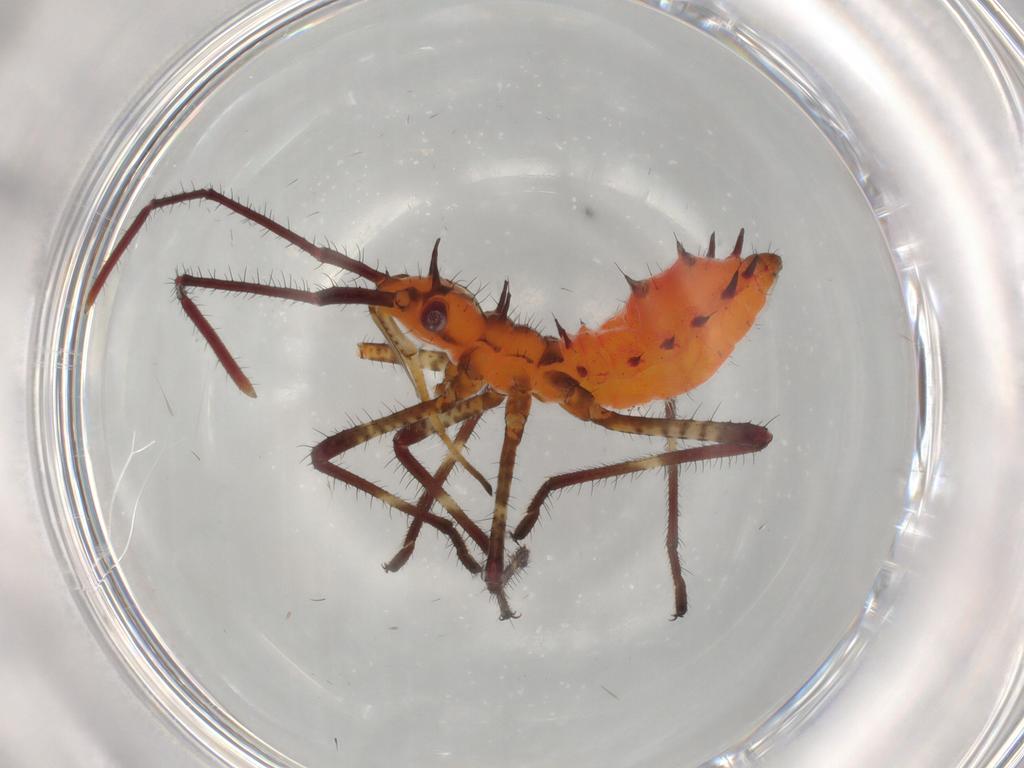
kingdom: Animalia
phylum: Arthropoda
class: Insecta
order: Hemiptera
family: Coreidae
